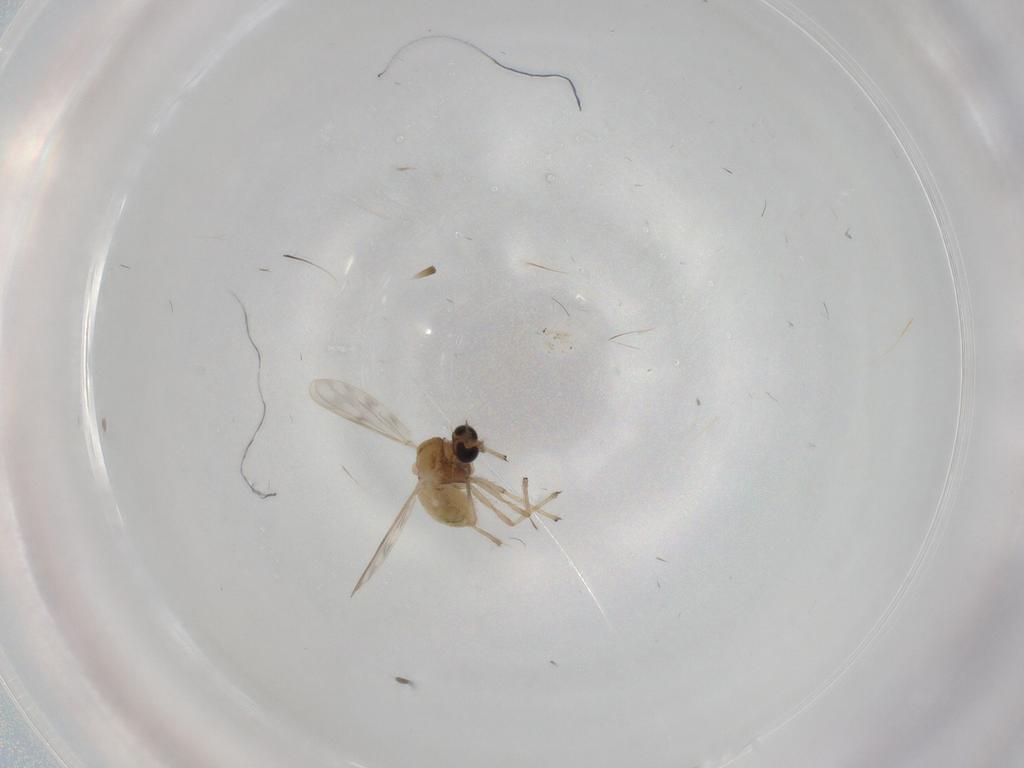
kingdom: Animalia
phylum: Arthropoda
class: Insecta
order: Diptera
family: Chironomidae
